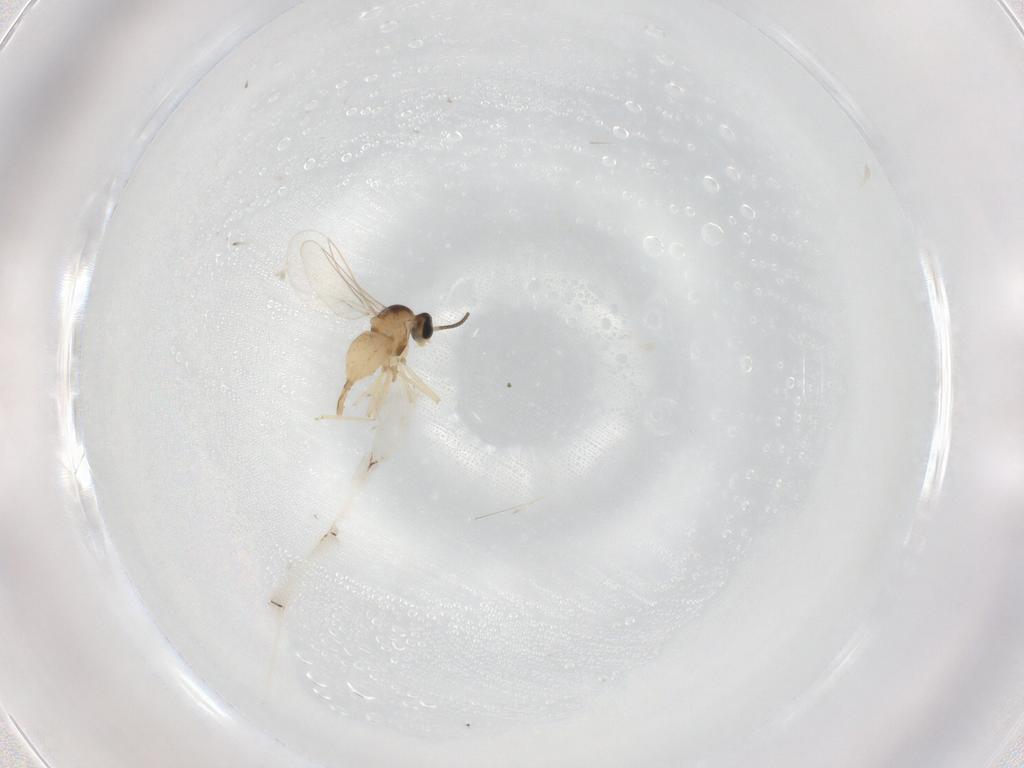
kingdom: Animalia
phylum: Arthropoda
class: Insecta
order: Diptera
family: Cecidomyiidae
